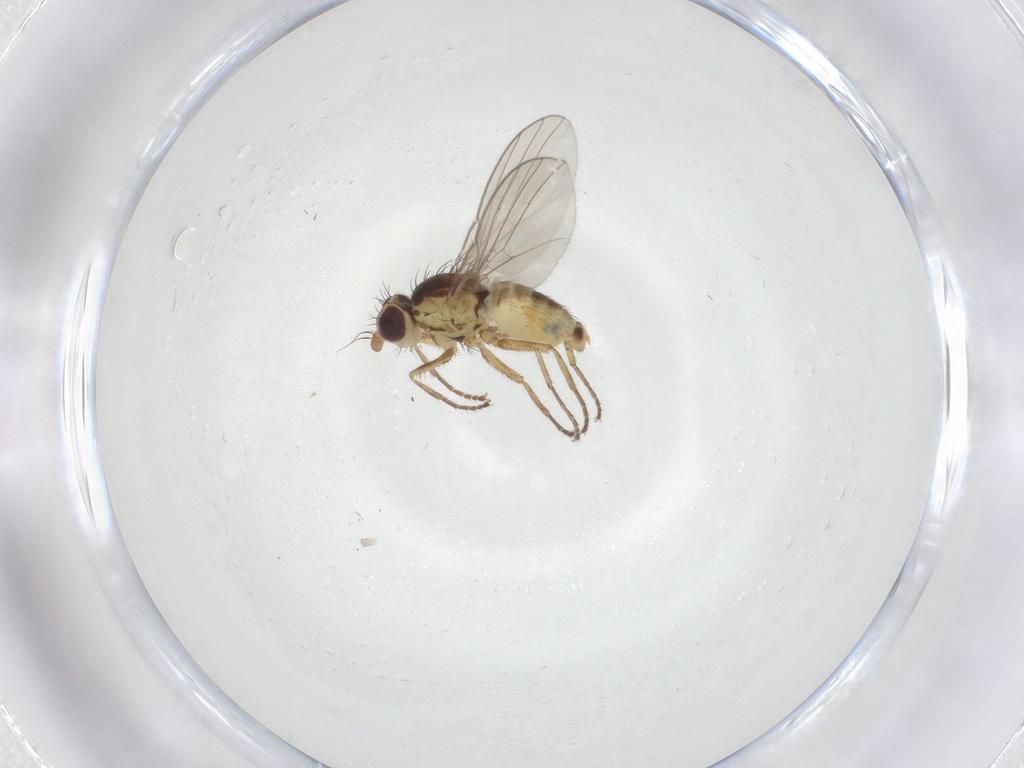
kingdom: Animalia
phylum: Arthropoda
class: Insecta
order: Diptera
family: Agromyzidae
